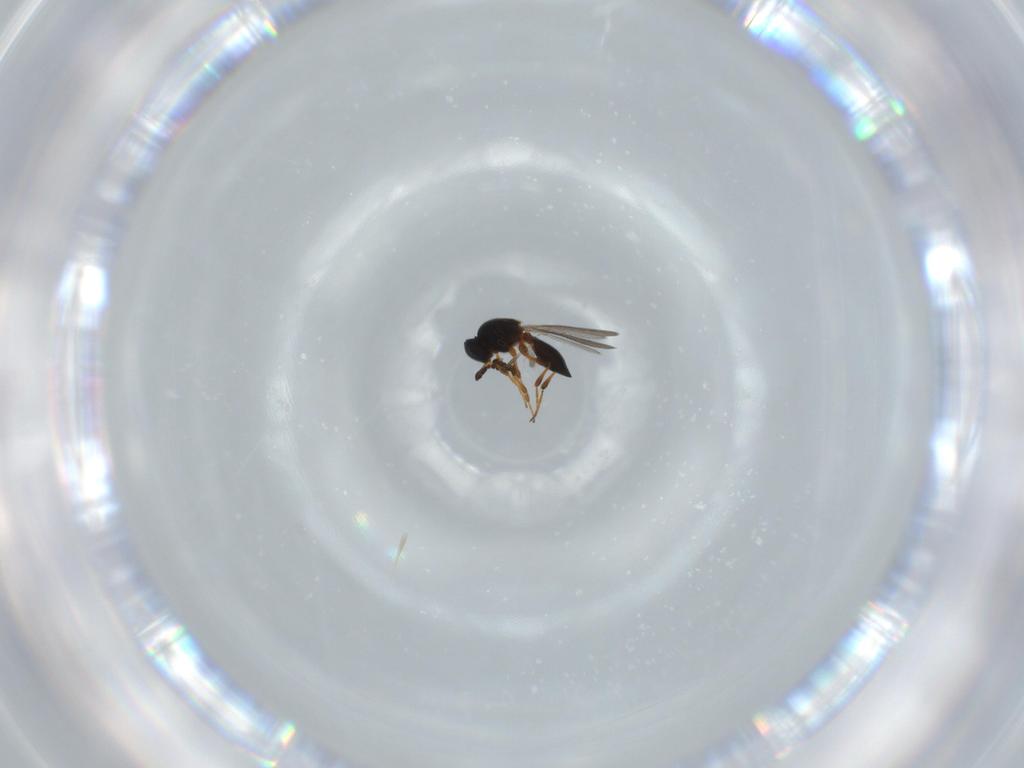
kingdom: Animalia
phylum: Arthropoda
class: Insecta
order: Hymenoptera
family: Platygastridae
